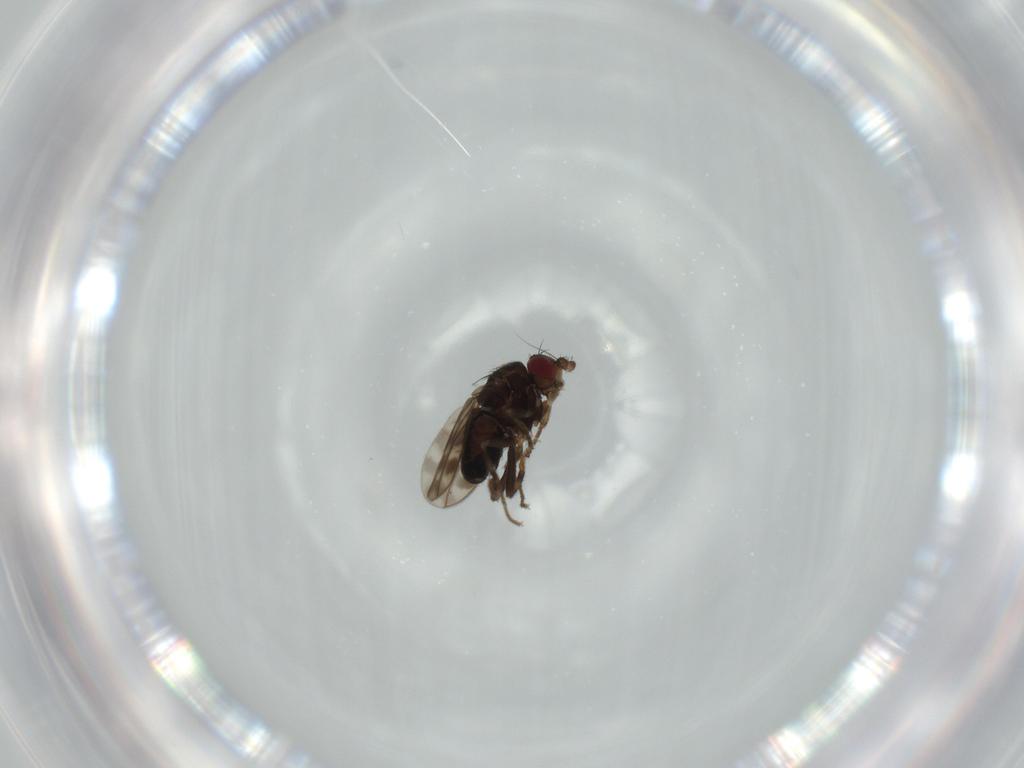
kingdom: Animalia
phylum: Arthropoda
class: Insecta
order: Diptera
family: Sphaeroceridae
